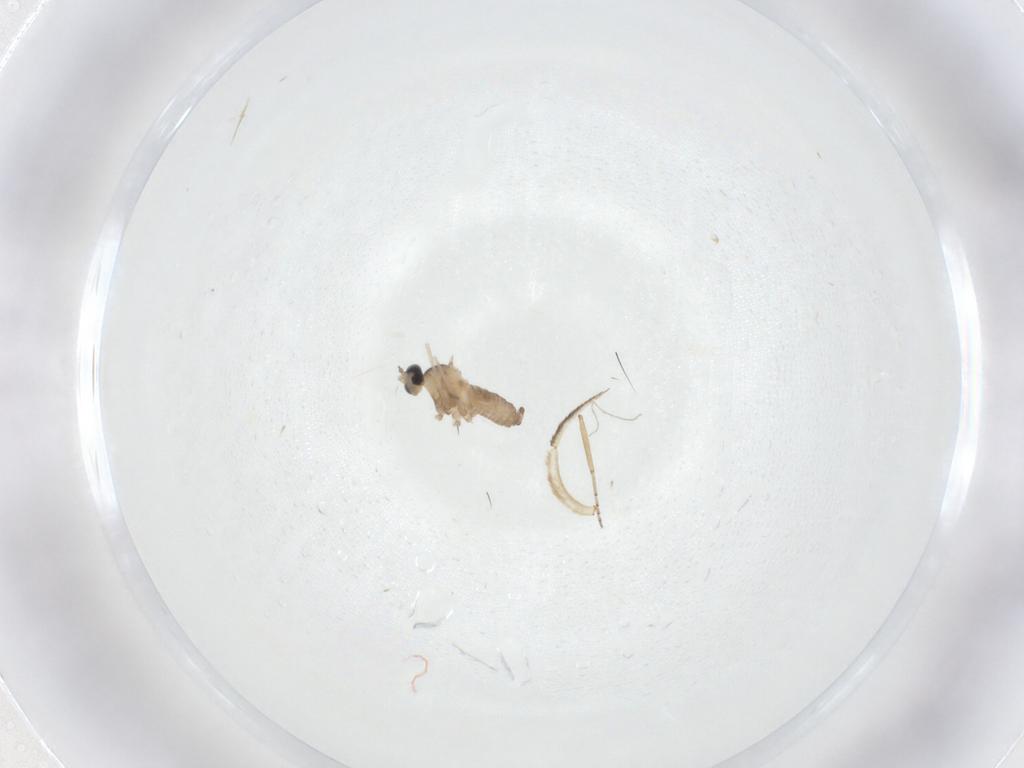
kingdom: Animalia
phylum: Arthropoda
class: Insecta
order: Diptera
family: Cecidomyiidae
